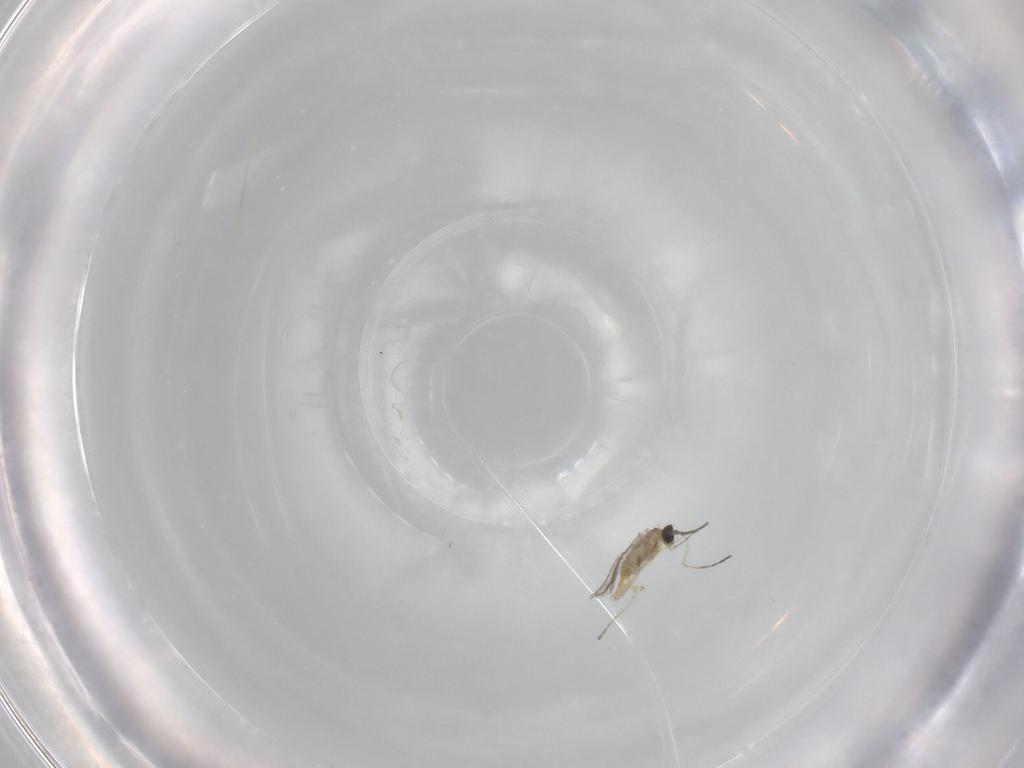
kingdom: Animalia
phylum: Arthropoda
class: Insecta
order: Diptera
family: Cecidomyiidae
